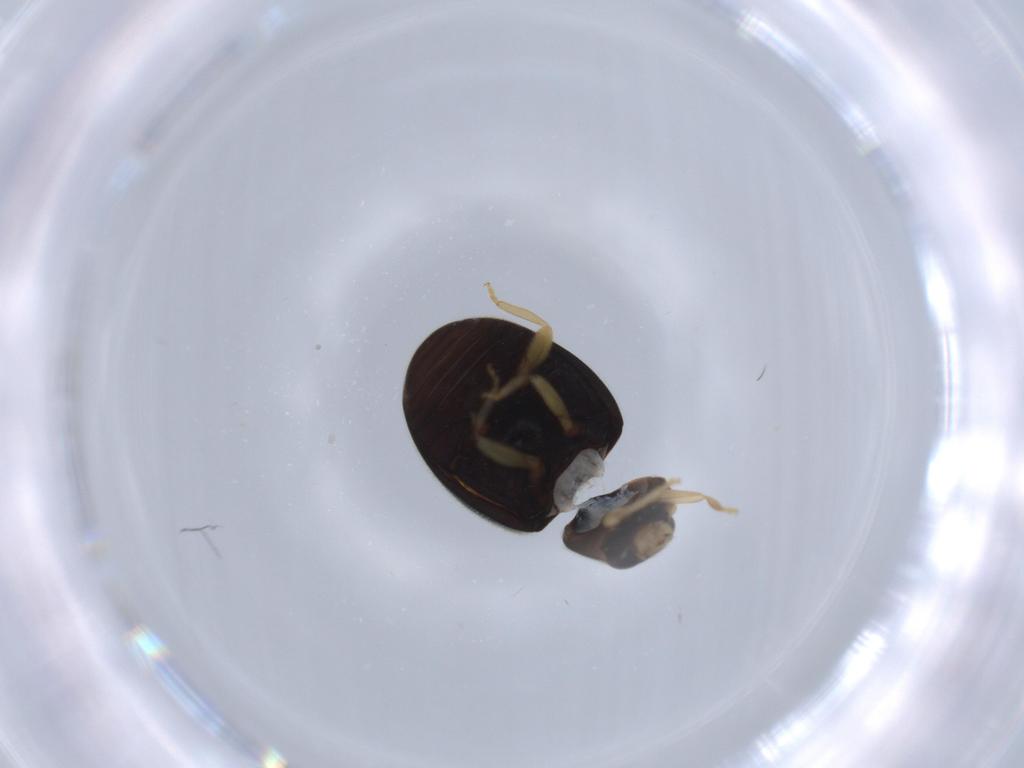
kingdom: Animalia
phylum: Arthropoda
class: Insecta
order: Coleoptera
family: Coccinellidae
